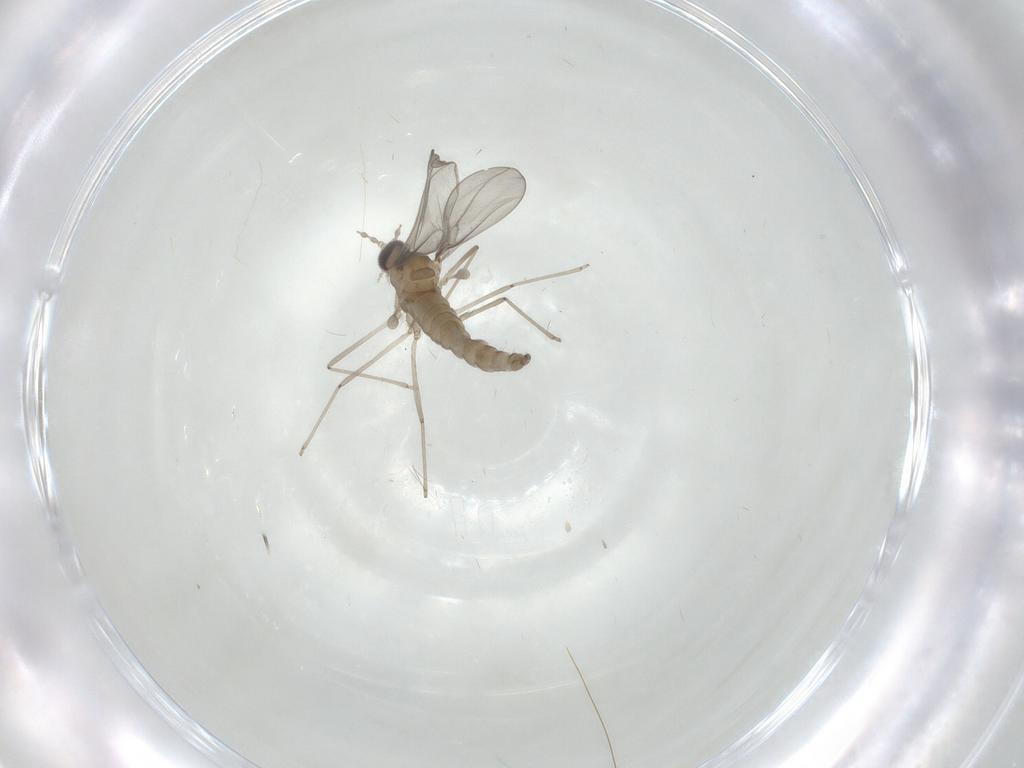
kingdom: Animalia
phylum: Arthropoda
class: Insecta
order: Diptera
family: Cecidomyiidae
